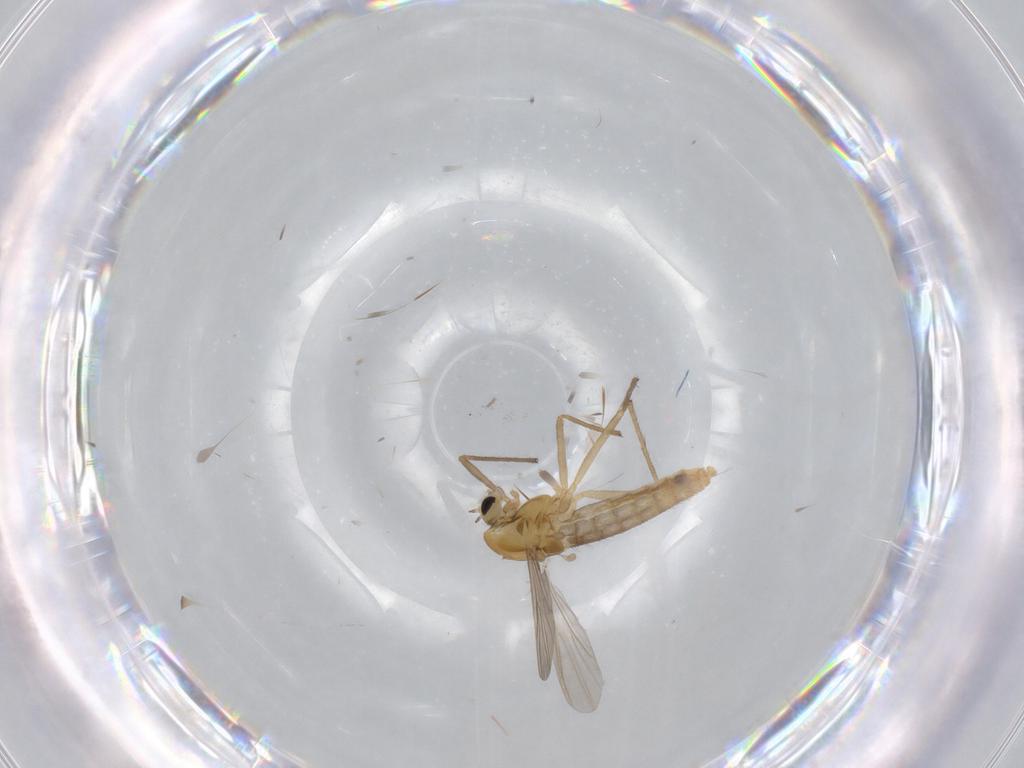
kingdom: Animalia
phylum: Arthropoda
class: Insecta
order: Diptera
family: Chironomidae
